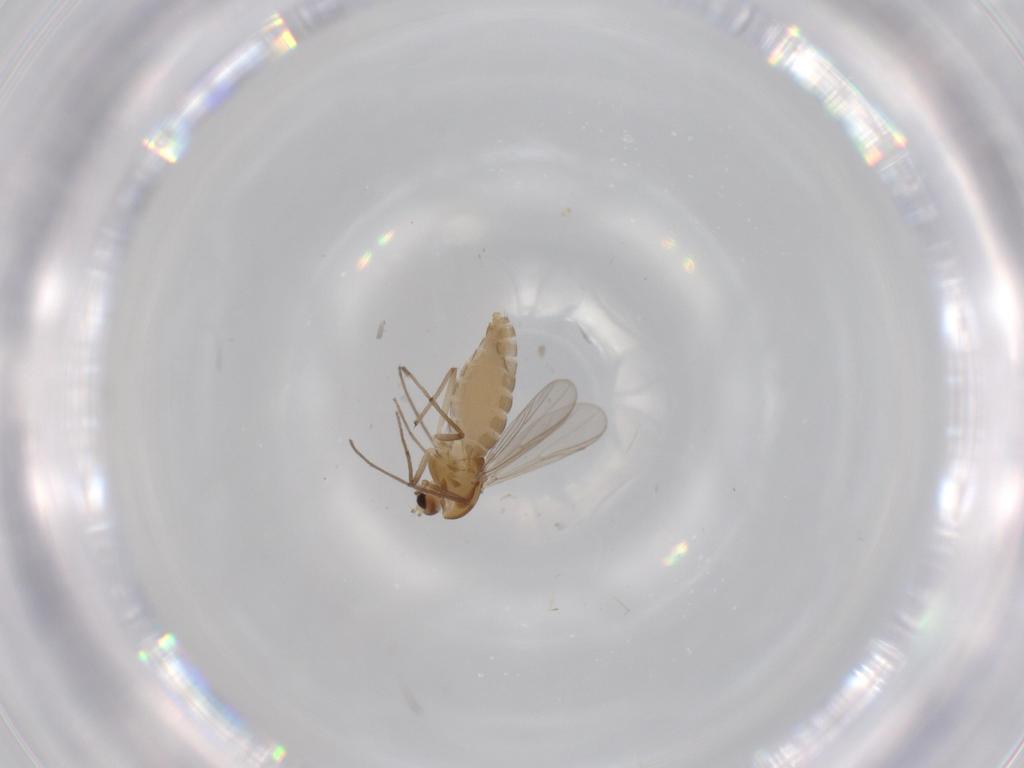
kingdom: Animalia
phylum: Arthropoda
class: Insecta
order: Diptera
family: Chironomidae
